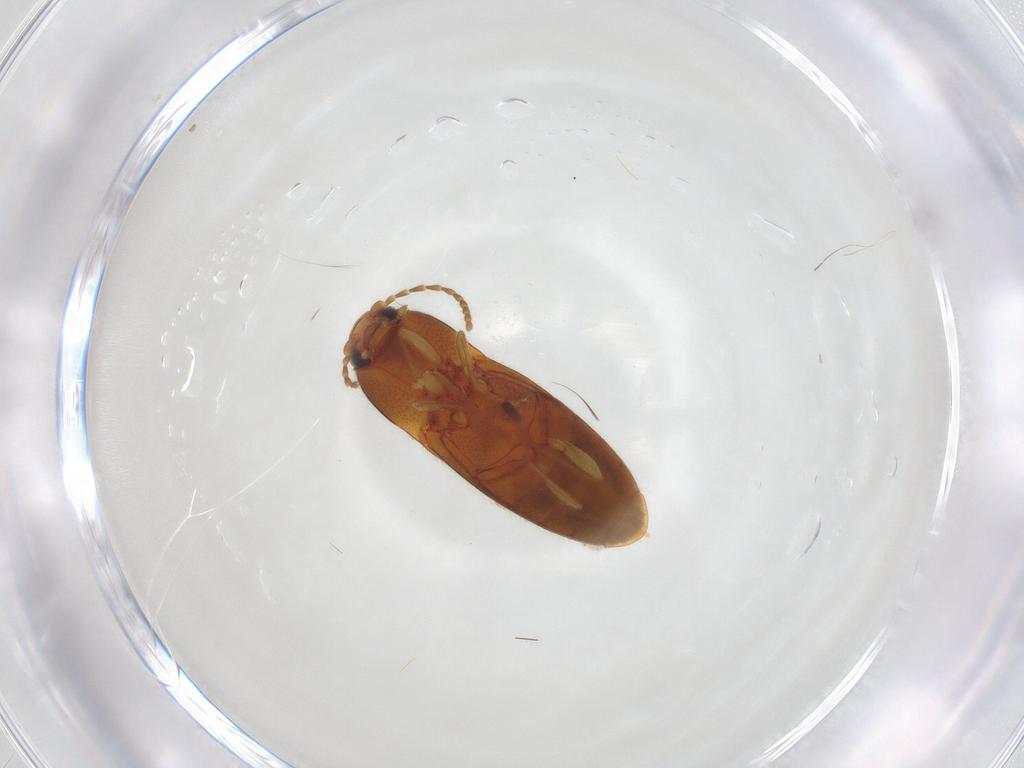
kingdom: Animalia
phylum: Arthropoda
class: Insecta
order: Coleoptera
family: Elateridae
